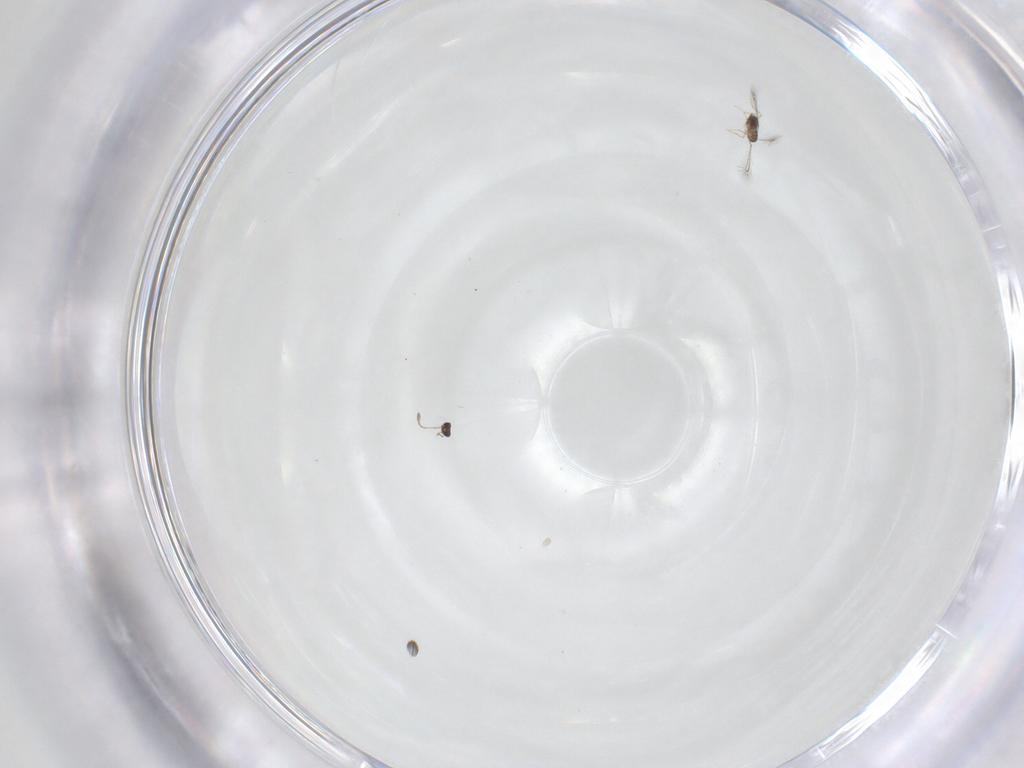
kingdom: Animalia
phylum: Arthropoda
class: Insecta
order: Diptera
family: Sciaridae
